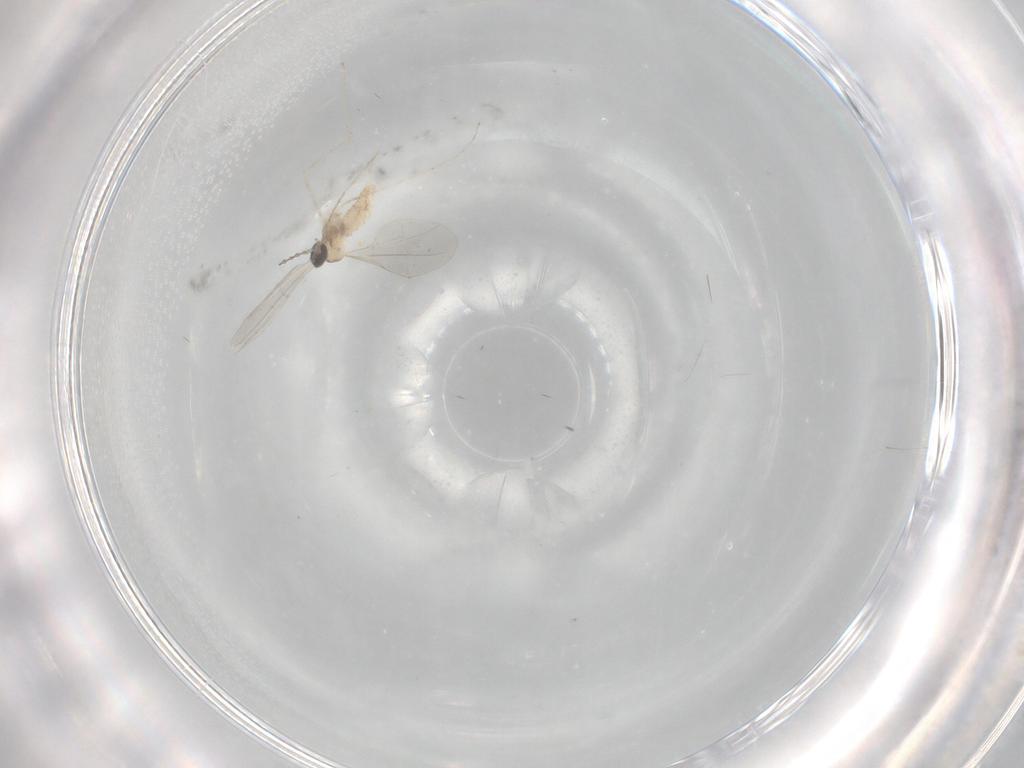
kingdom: Animalia
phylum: Arthropoda
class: Insecta
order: Diptera
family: Cecidomyiidae
